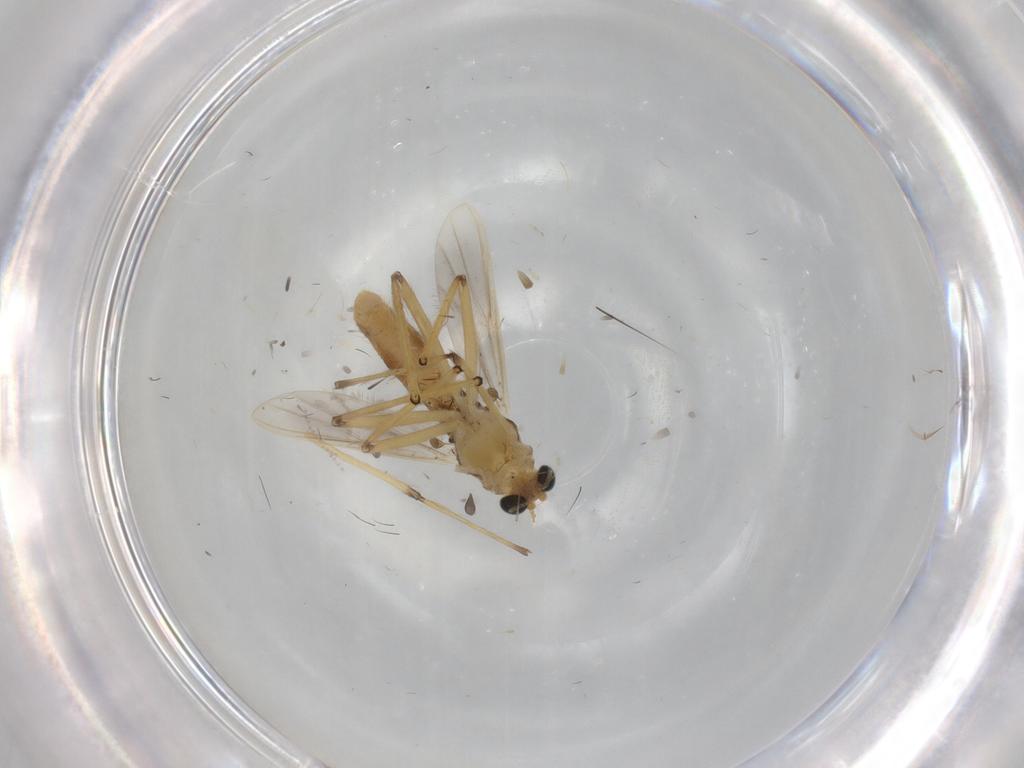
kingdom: Animalia
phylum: Arthropoda
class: Insecta
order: Diptera
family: Chironomidae
